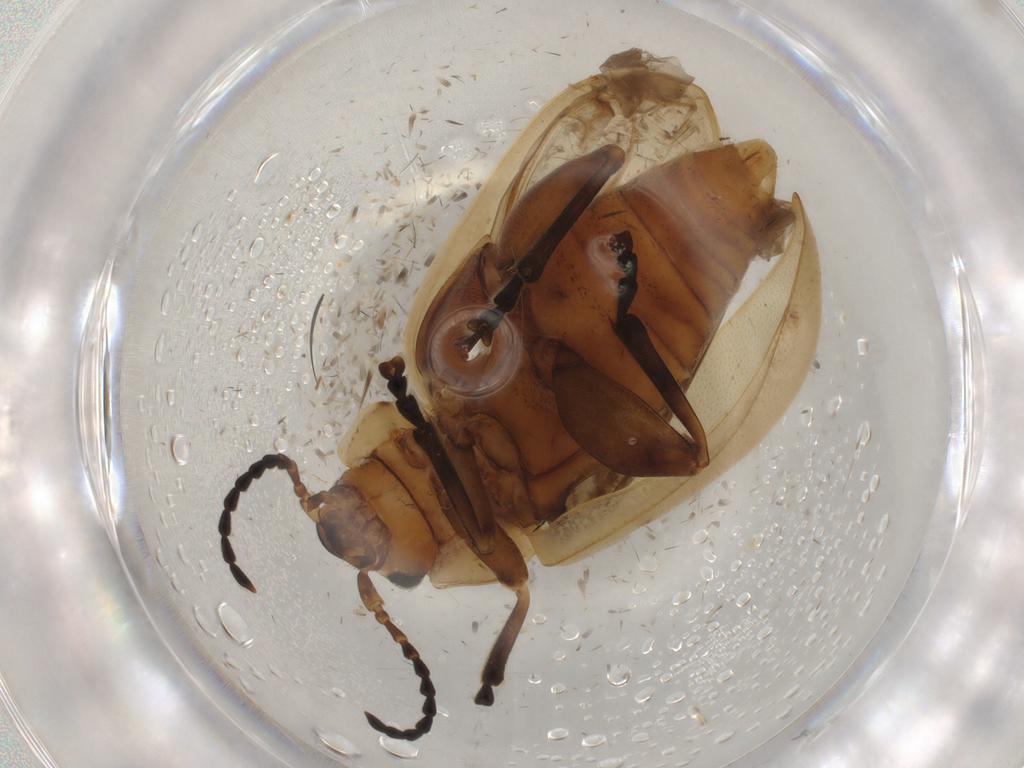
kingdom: Animalia
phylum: Arthropoda
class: Insecta
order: Coleoptera
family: Chrysomelidae
